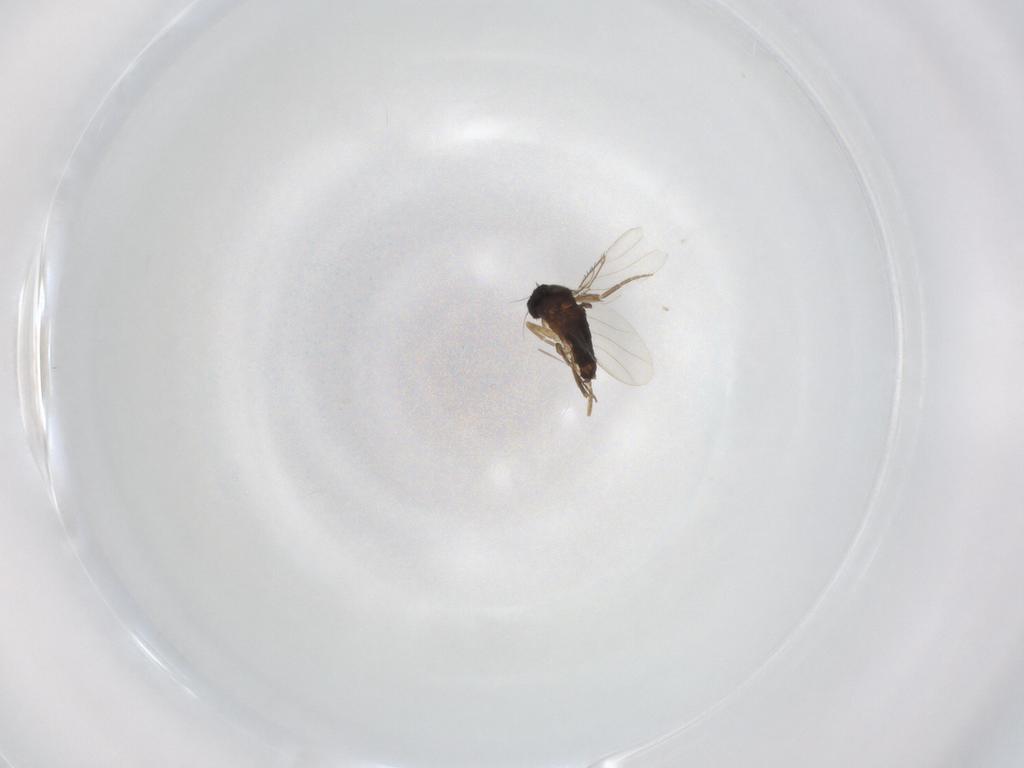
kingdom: Animalia
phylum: Arthropoda
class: Insecta
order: Diptera
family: Phoridae
